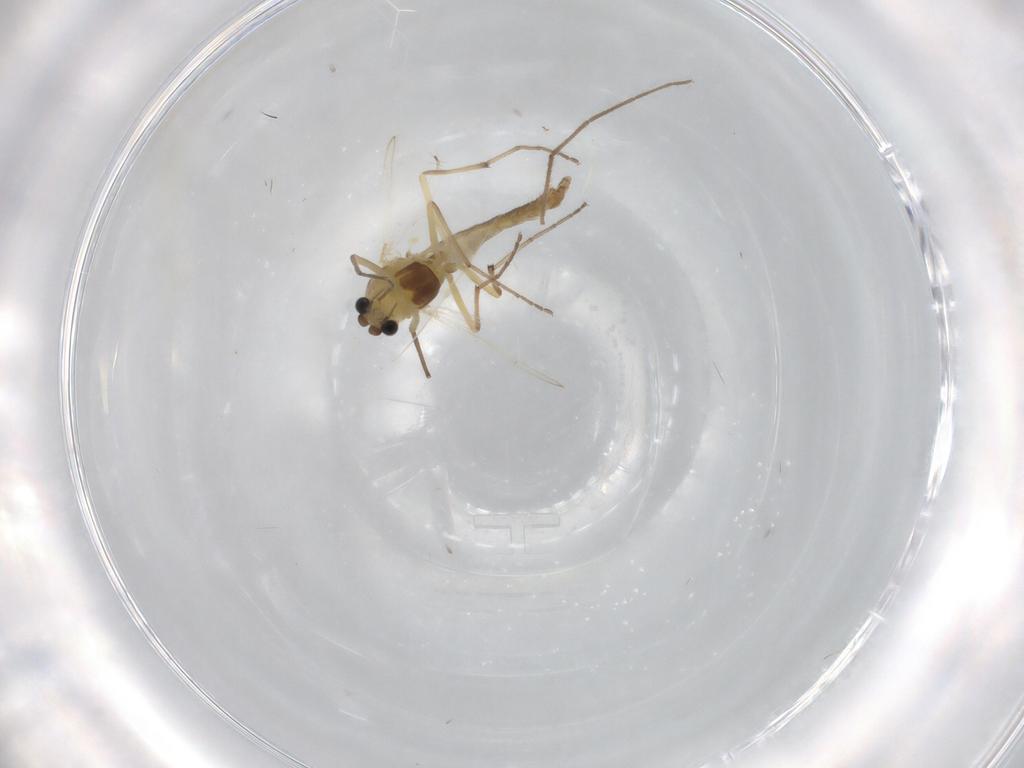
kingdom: Animalia
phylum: Arthropoda
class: Insecta
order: Diptera
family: Chironomidae
